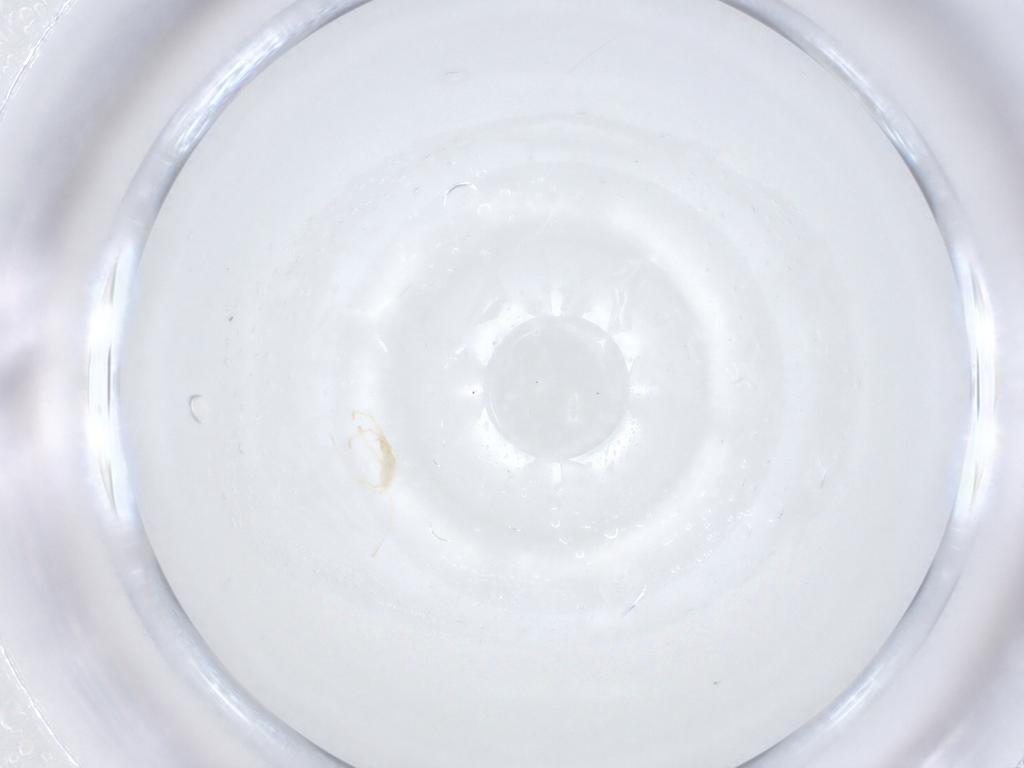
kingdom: Animalia
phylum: Arthropoda
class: Arachnida
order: Trombidiformes
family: Erythraeidae
